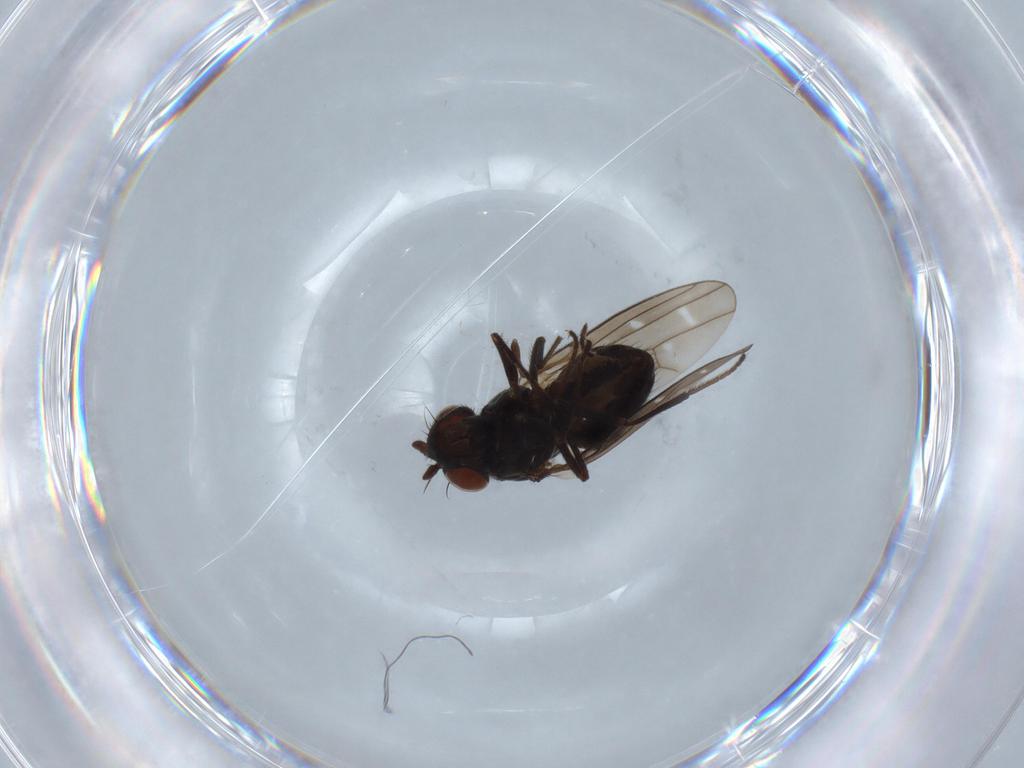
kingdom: Animalia
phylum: Arthropoda
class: Insecta
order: Diptera
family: Ephydridae
